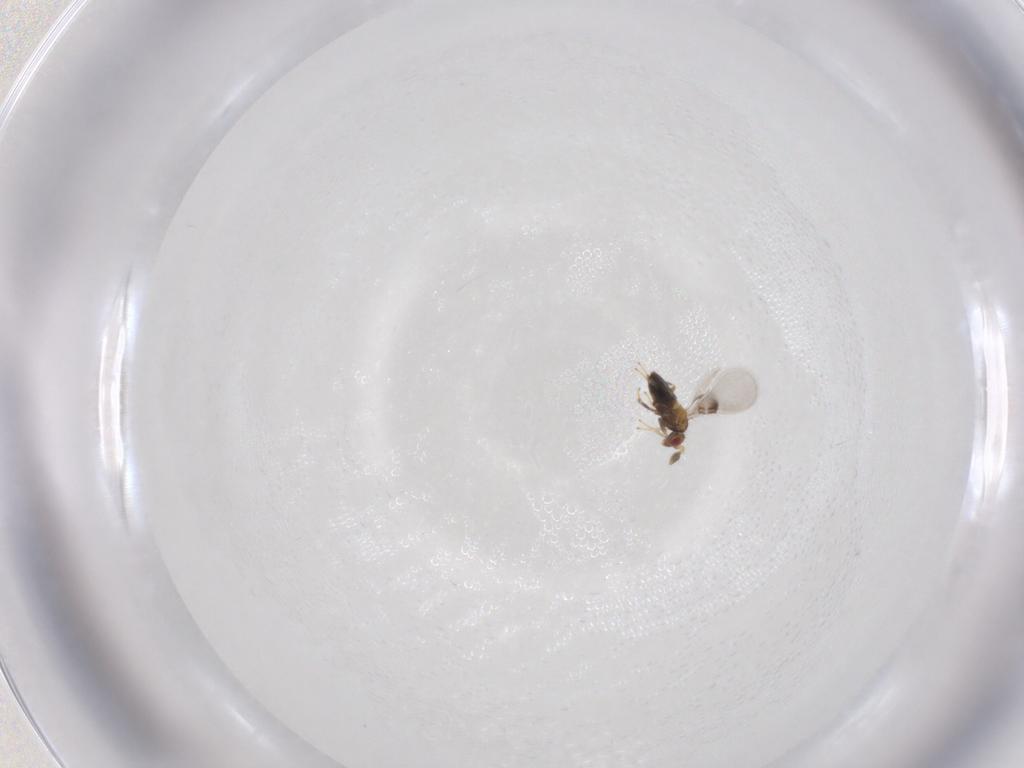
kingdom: Animalia
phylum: Arthropoda
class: Insecta
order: Hymenoptera
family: Trichogrammatidae
